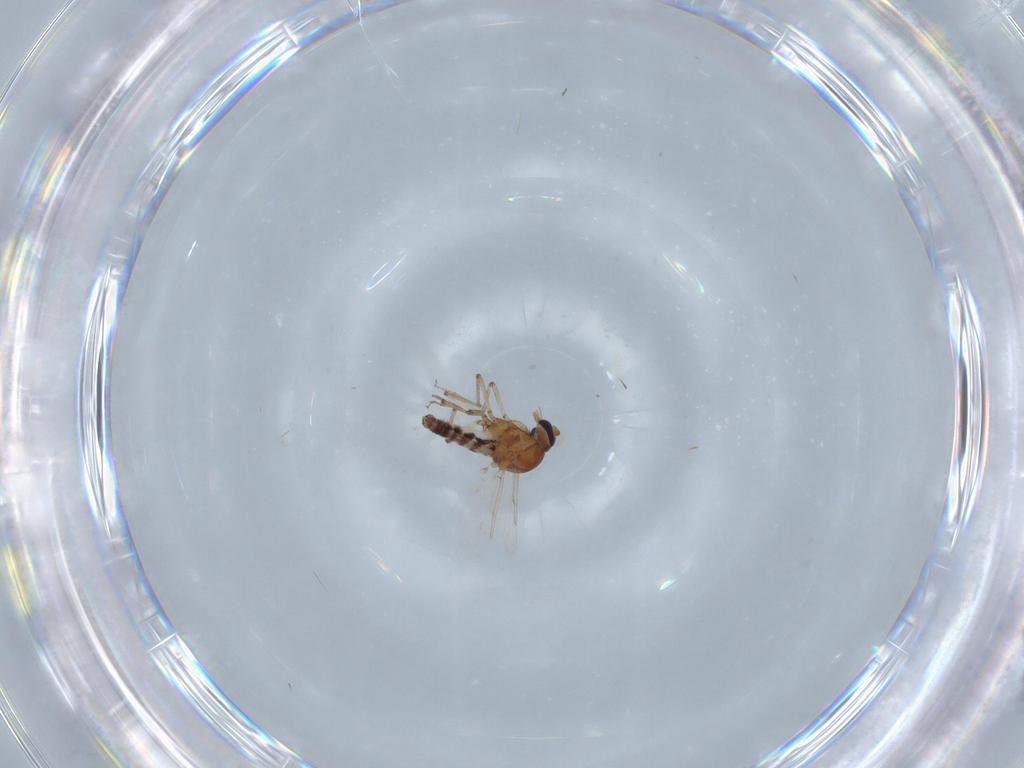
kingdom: Animalia
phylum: Arthropoda
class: Insecta
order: Diptera
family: Ceratopogonidae
